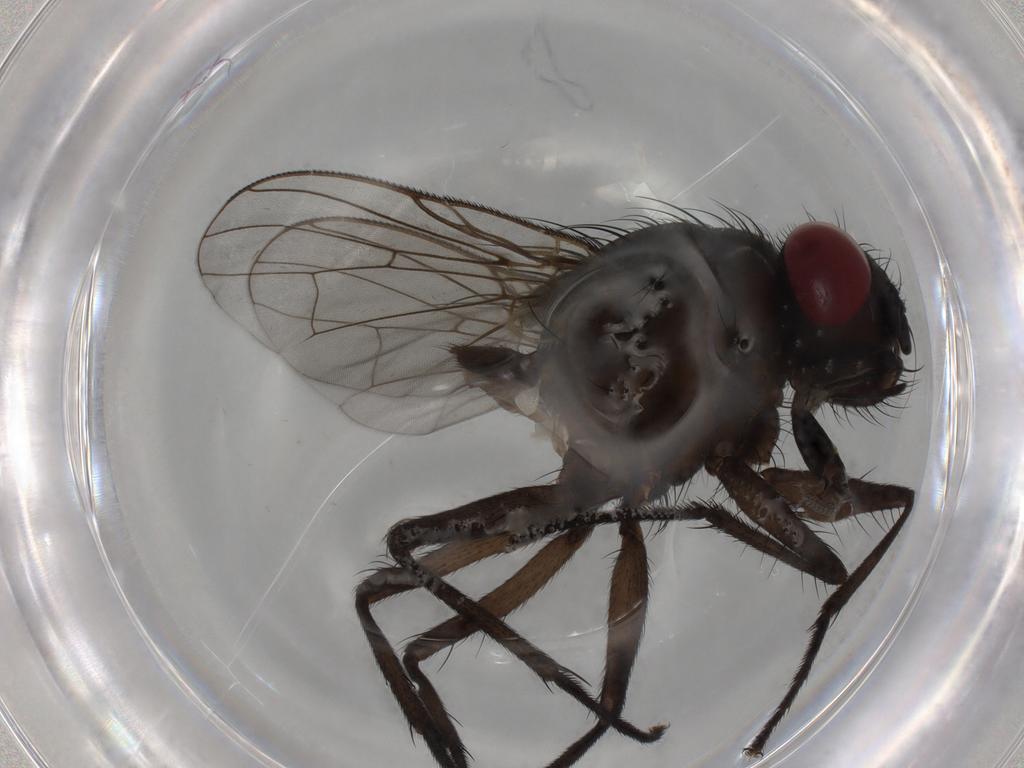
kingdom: Animalia
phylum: Arthropoda
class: Insecta
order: Diptera
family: Muscidae
